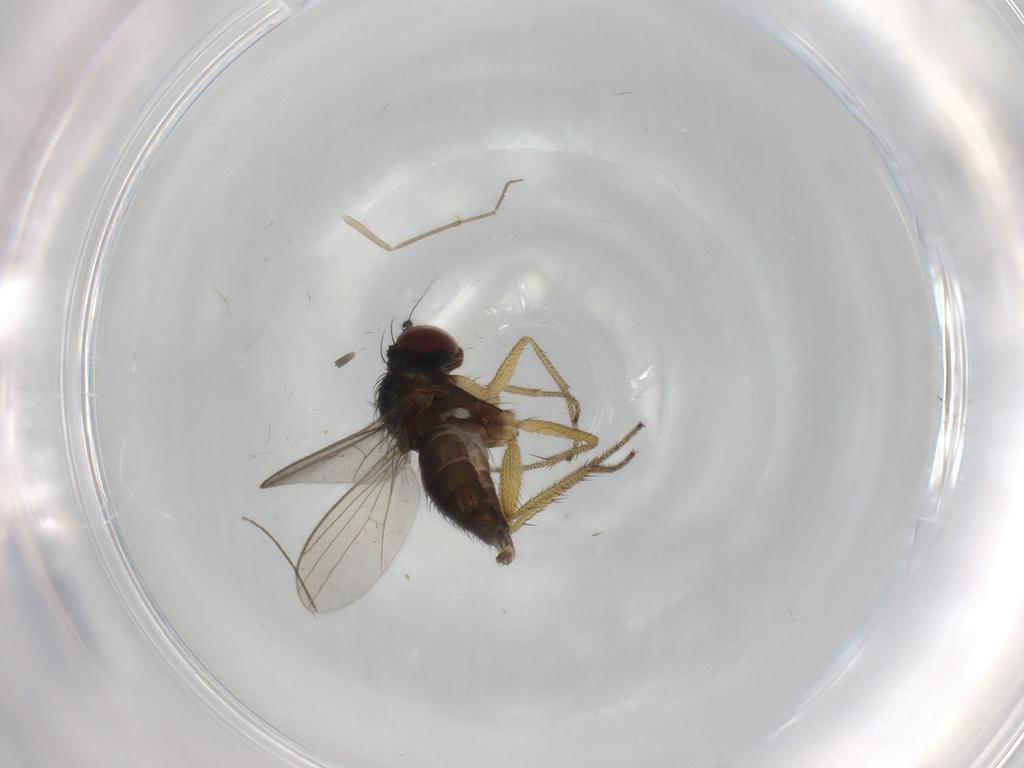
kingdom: Animalia
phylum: Arthropoda
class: Insecta
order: Diptera
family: Chironomidae
